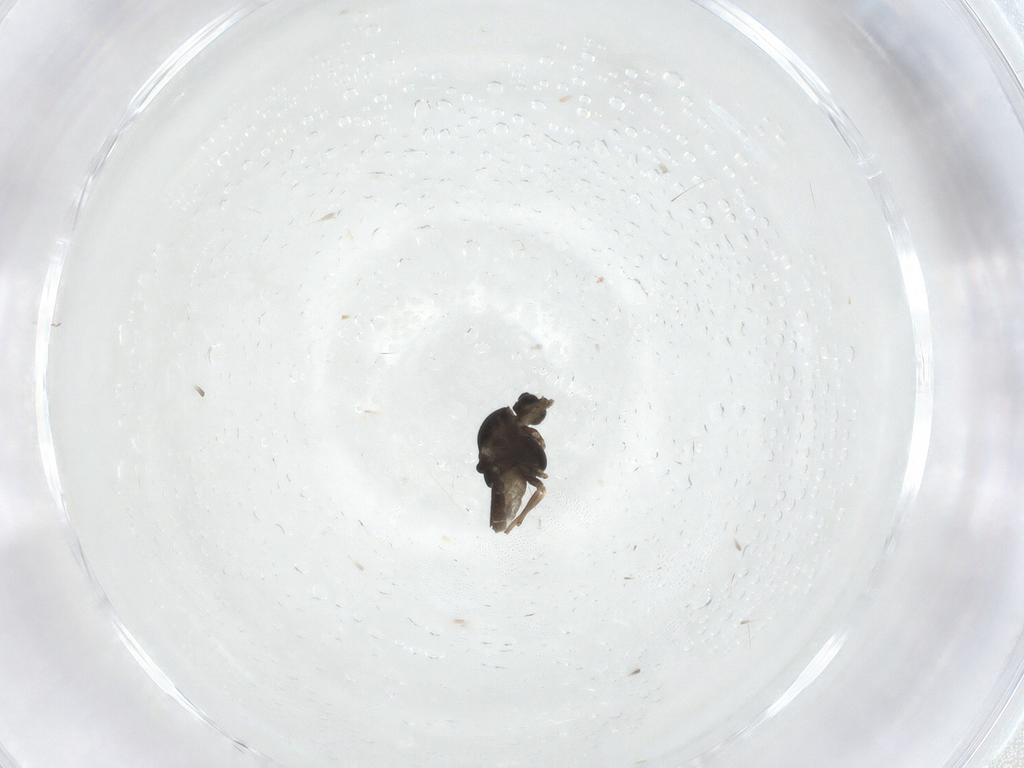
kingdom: Animalia
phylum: Arthropoda
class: Insecta
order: Diptera
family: Chironomidae
